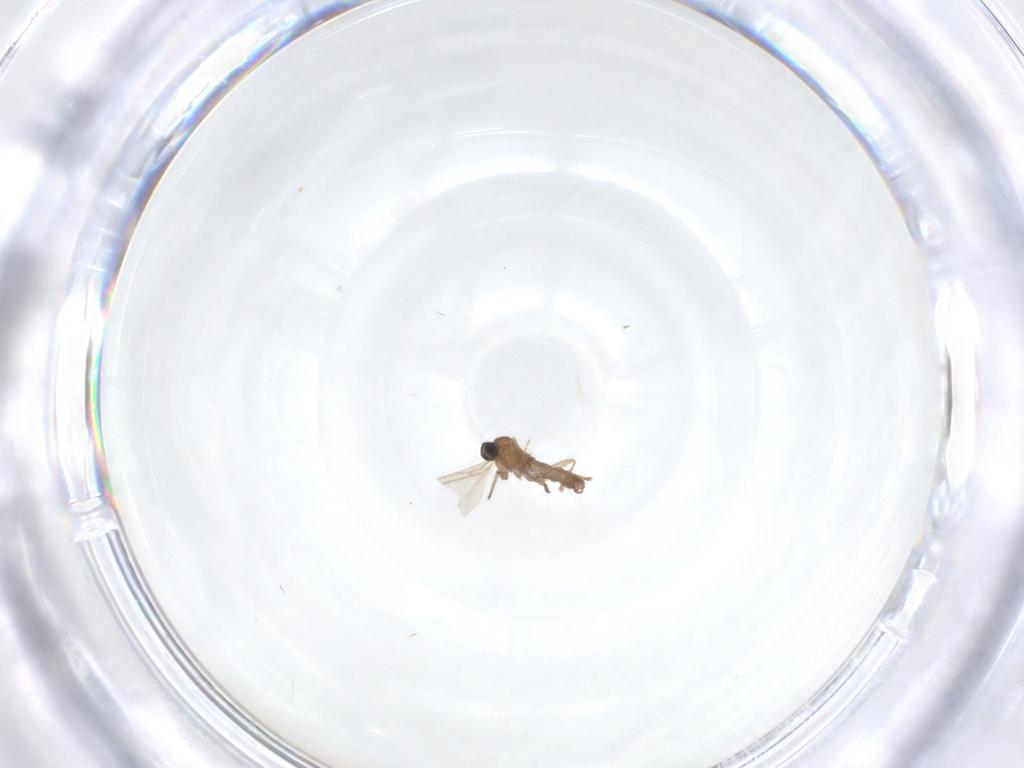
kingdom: Animalia
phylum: Arthropoda
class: Insecta
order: Diptera
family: Sciaridae
